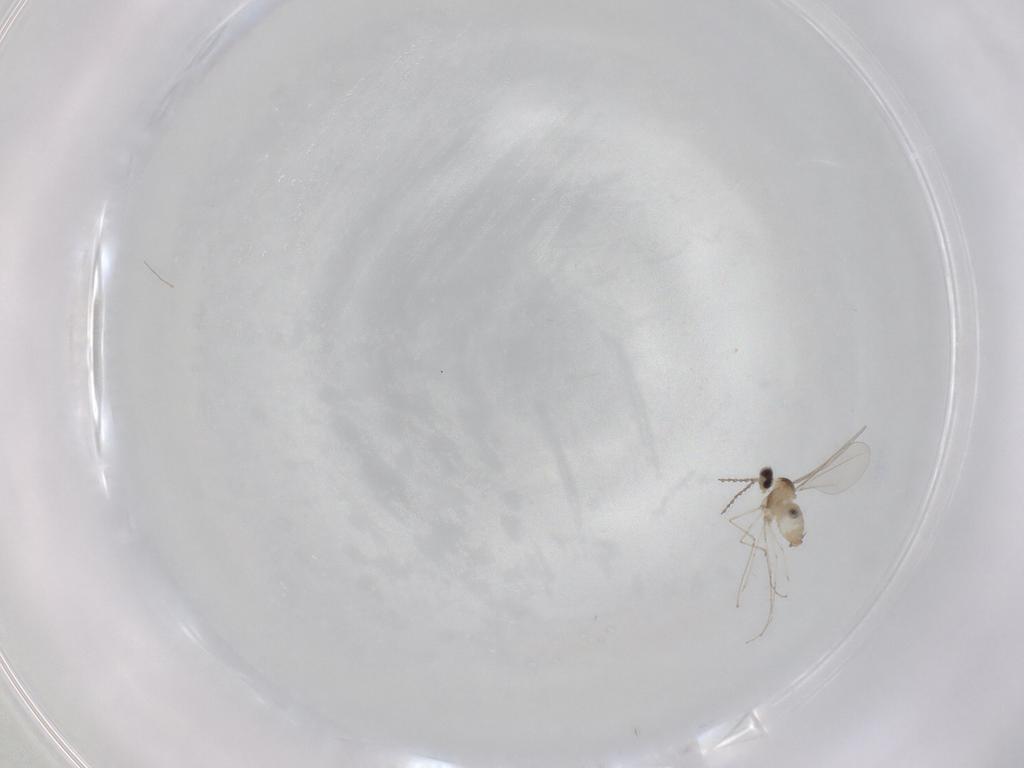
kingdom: Animalia
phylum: Arthropoda
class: Insecta
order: Diptera
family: Cecidomyiidae
